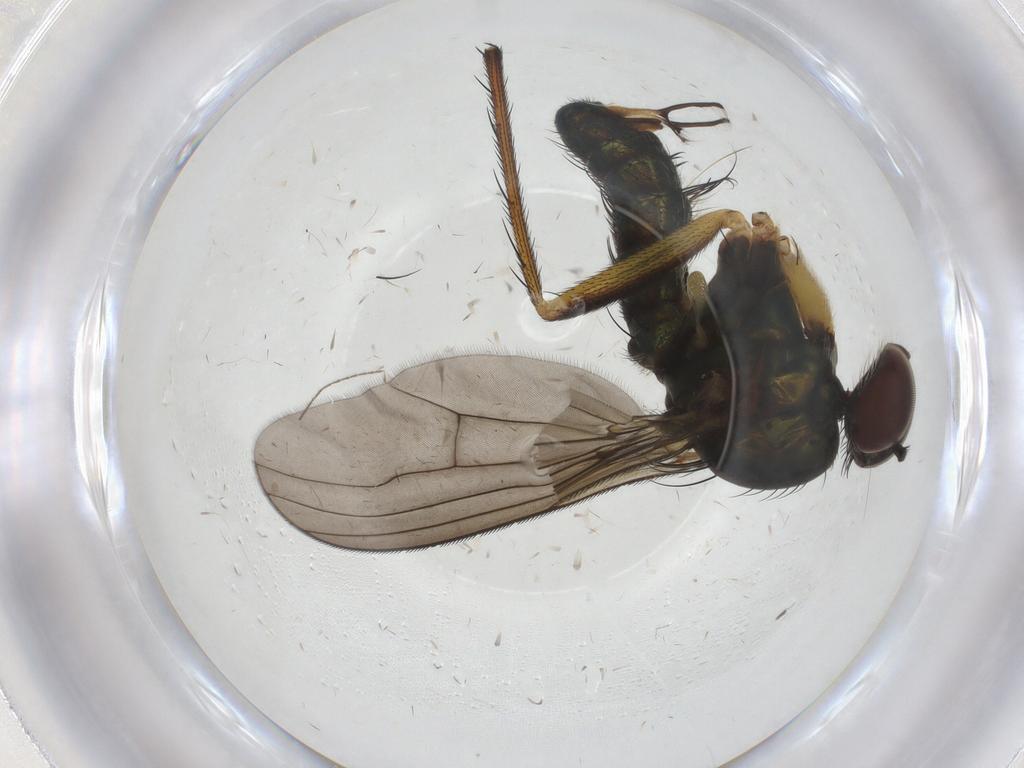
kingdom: Animalia
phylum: Arthropoda
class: Insecta
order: Diptera
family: Dolichopodidae
